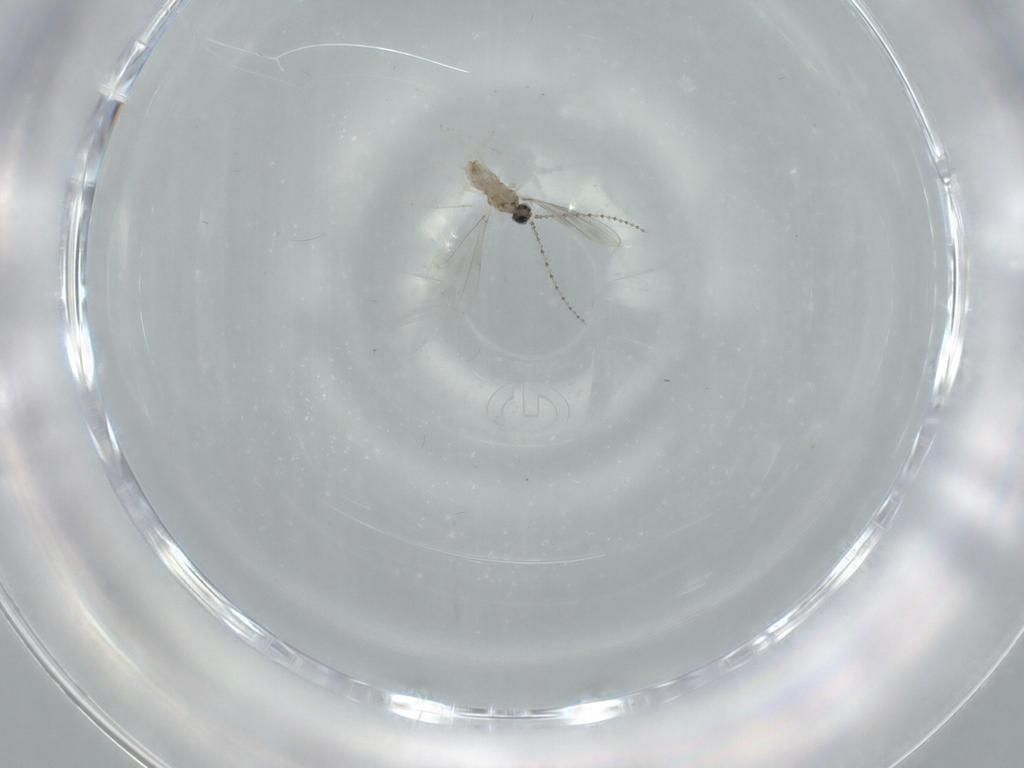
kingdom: Animalia
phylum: Arthropoda
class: Insecta
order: Diptera
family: Cecidomyiidae
